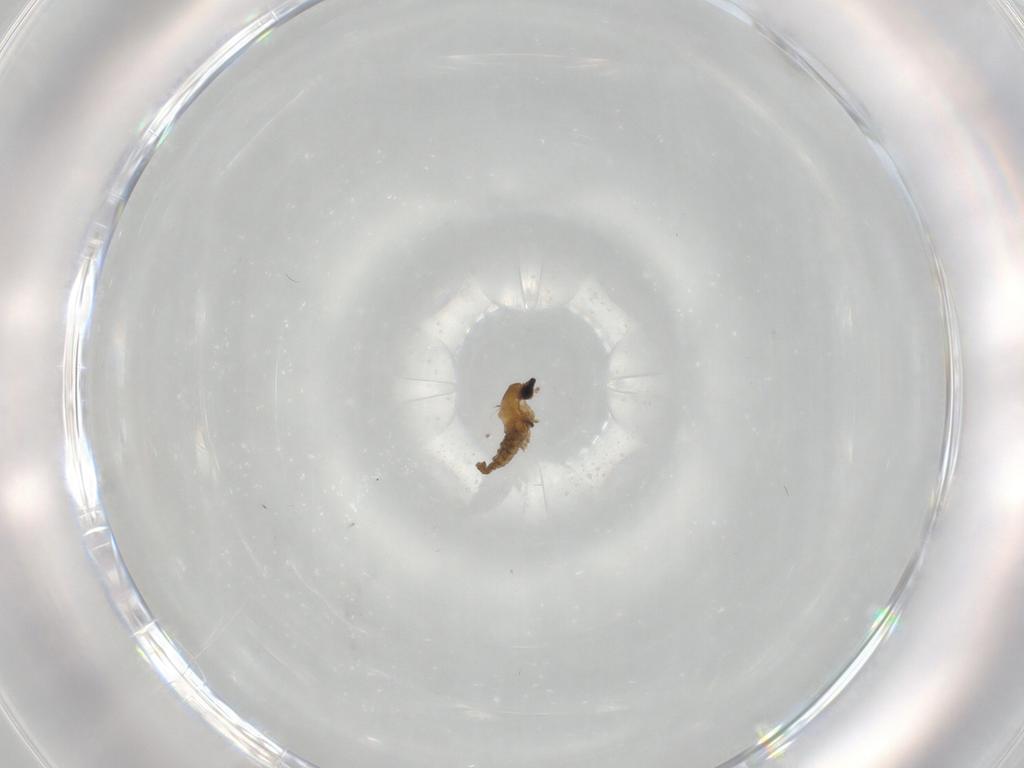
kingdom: Animalia
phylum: Arthropoda
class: Insecta
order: Diptera
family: Cecidomyiidae
